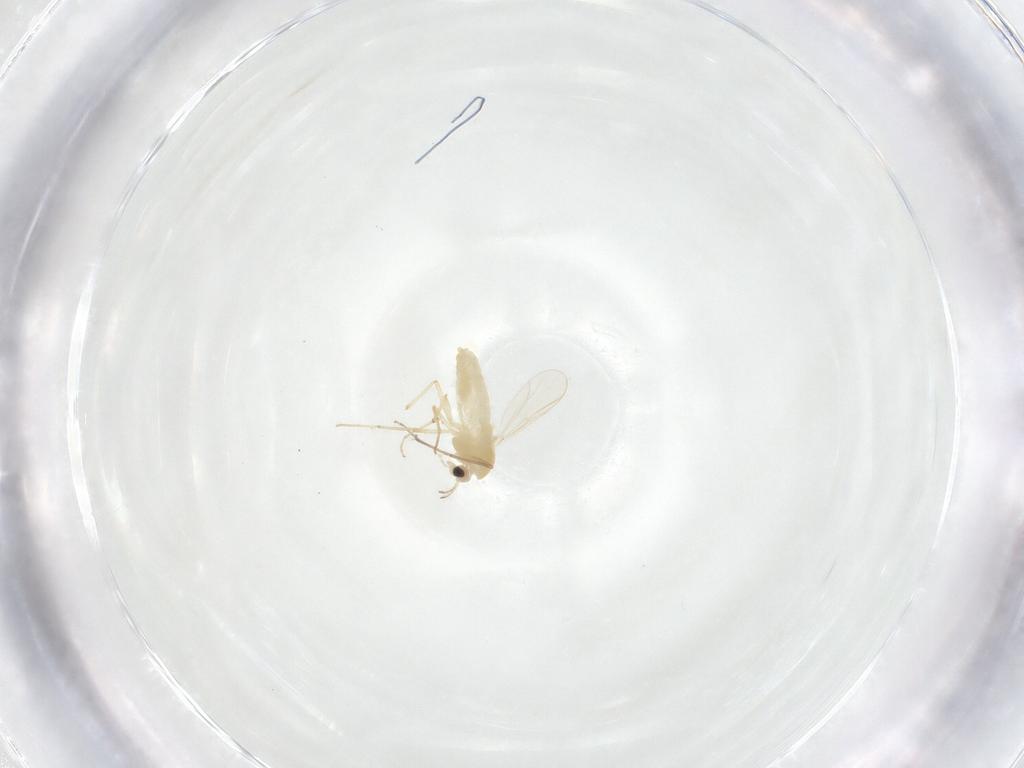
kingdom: Animalia
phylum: Arthropoda
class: Insecta
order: Diptera
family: Chironomidae
